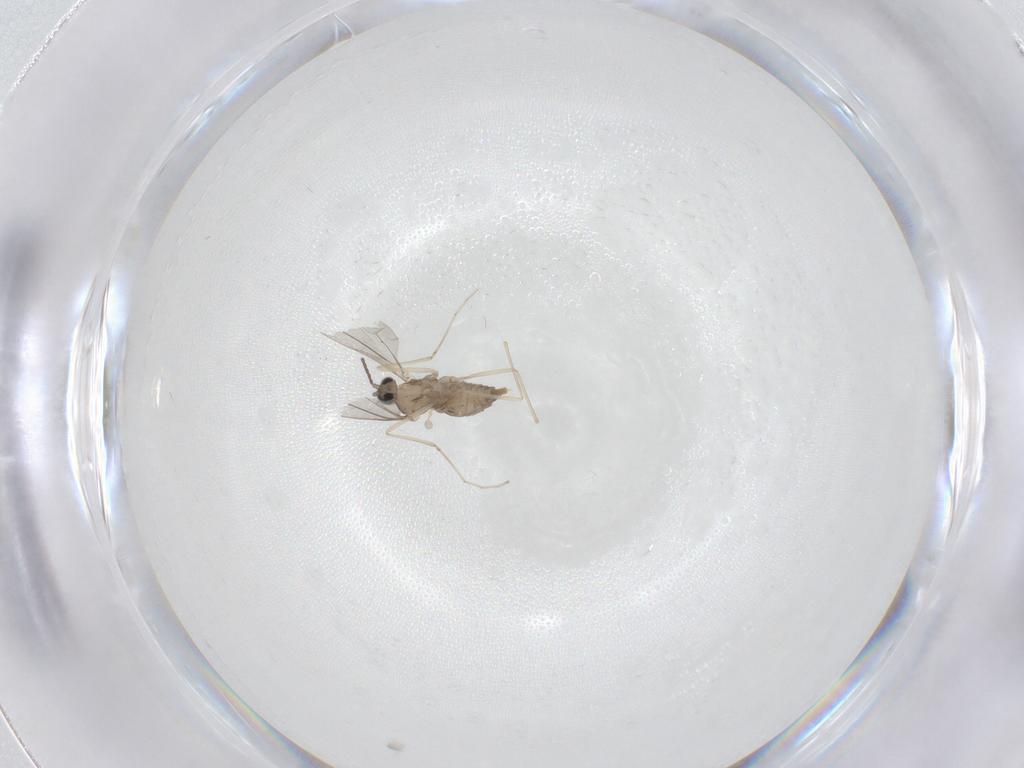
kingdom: Animalia
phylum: Arthropoda
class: Insecta
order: Diptera
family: Cecidomyiidae
